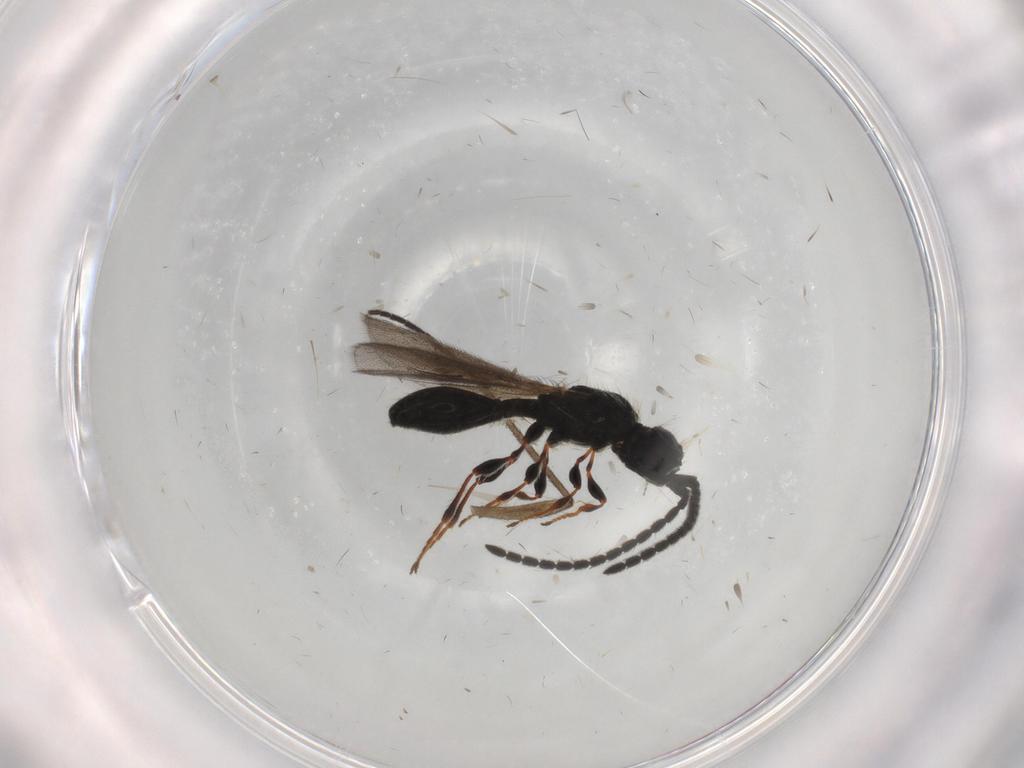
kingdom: Animalia
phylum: Arthropoda
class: Insecta
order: Hymenoptera
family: Diapriidae
